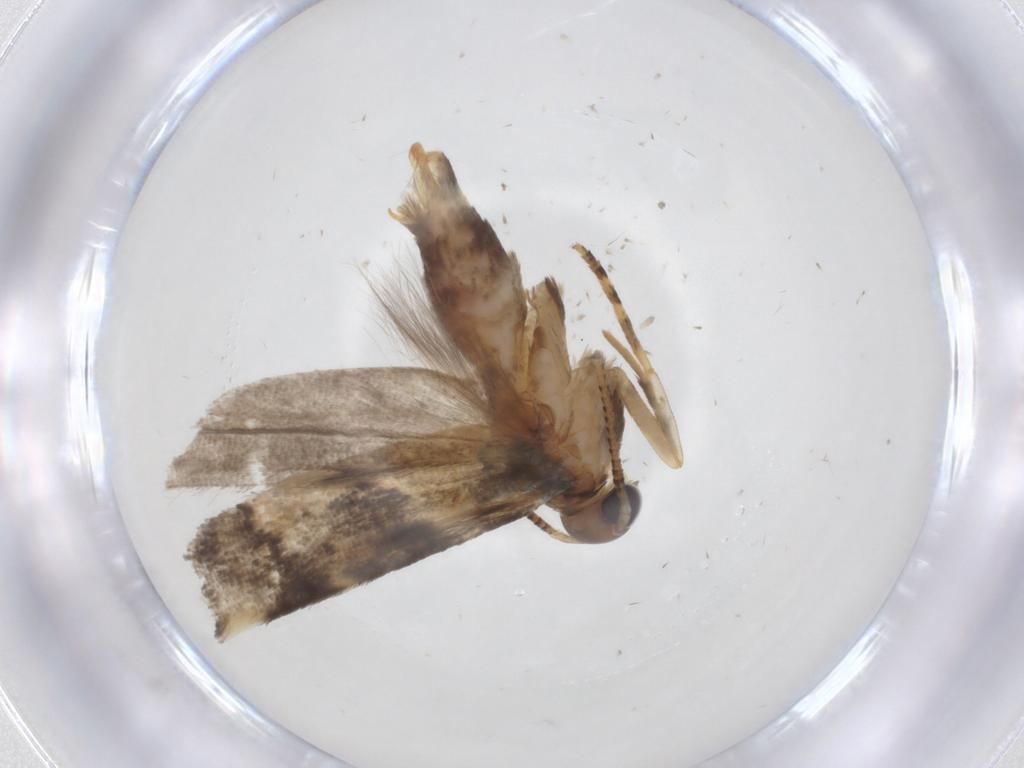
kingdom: Animalia
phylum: Arthropoda
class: Insecta
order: Lepidoptera
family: Gelechiidae
